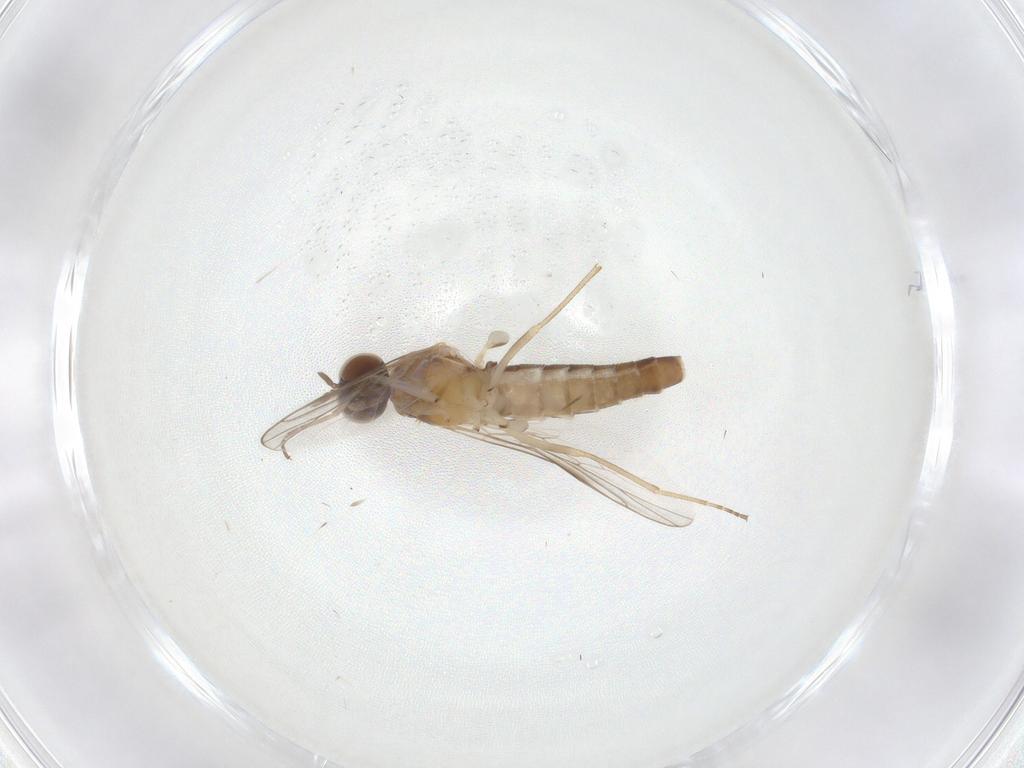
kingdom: Animalia
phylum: Arthropoda
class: Insecta
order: Diptera
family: Scenopinidae
